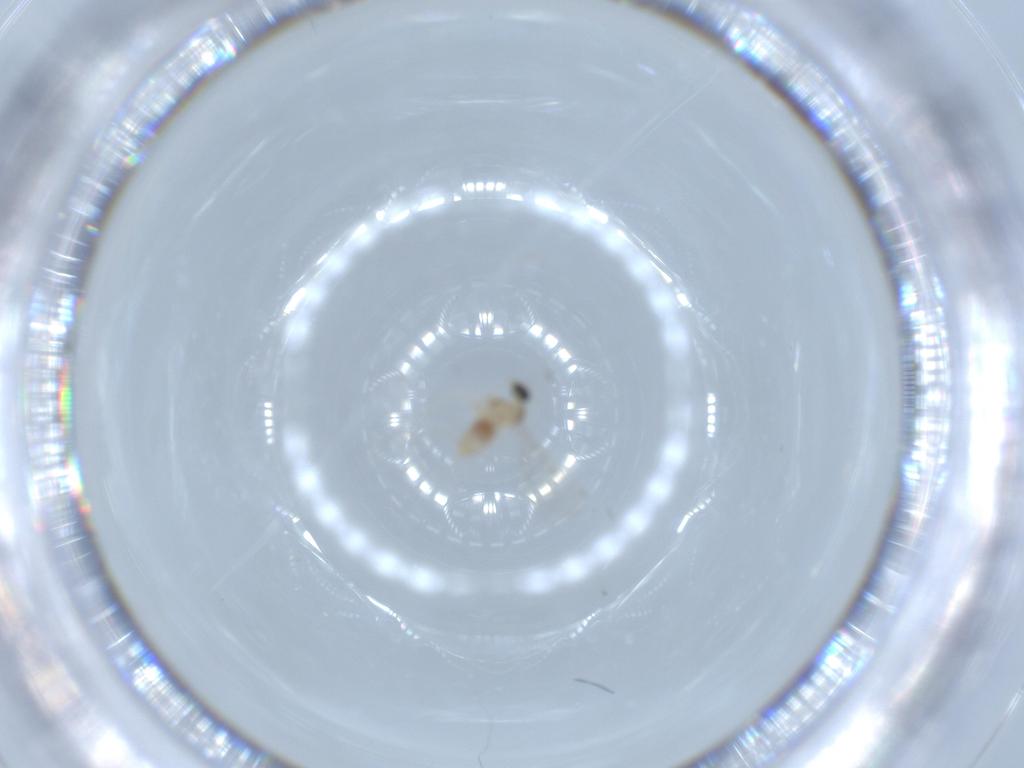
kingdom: Animalia
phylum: Arthropoda
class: Insecta
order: Diptera
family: Cecidomyiidae
